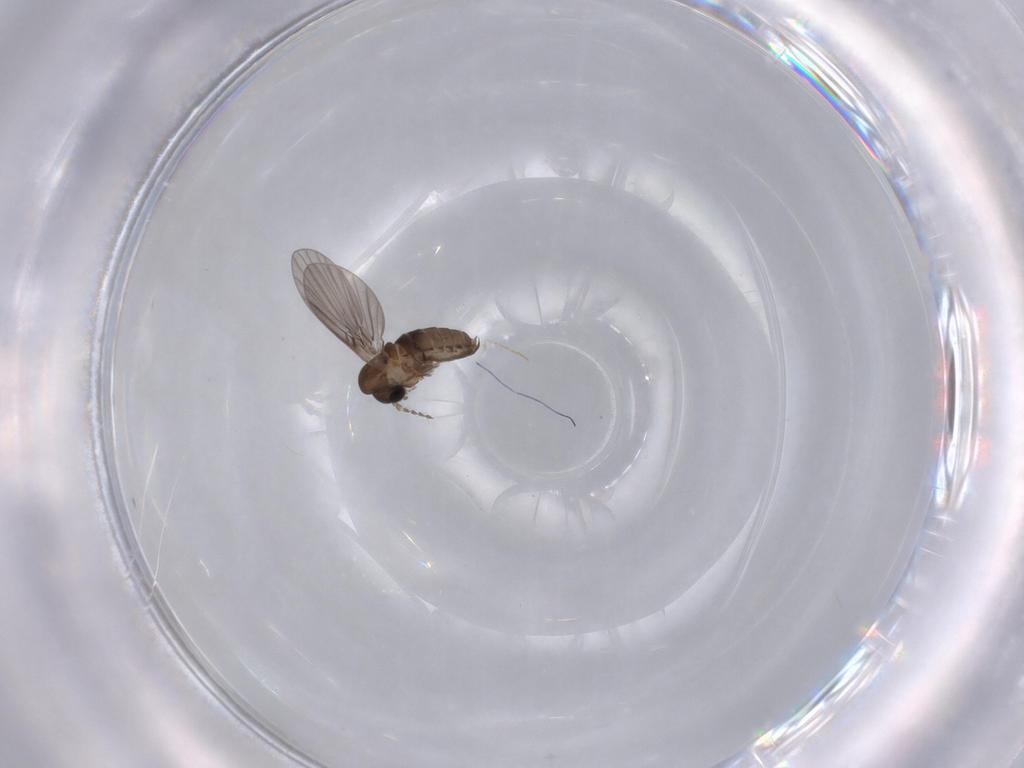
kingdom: Animalia
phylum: Arthropoda
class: Insecta
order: Diptera
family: Psychodidae
